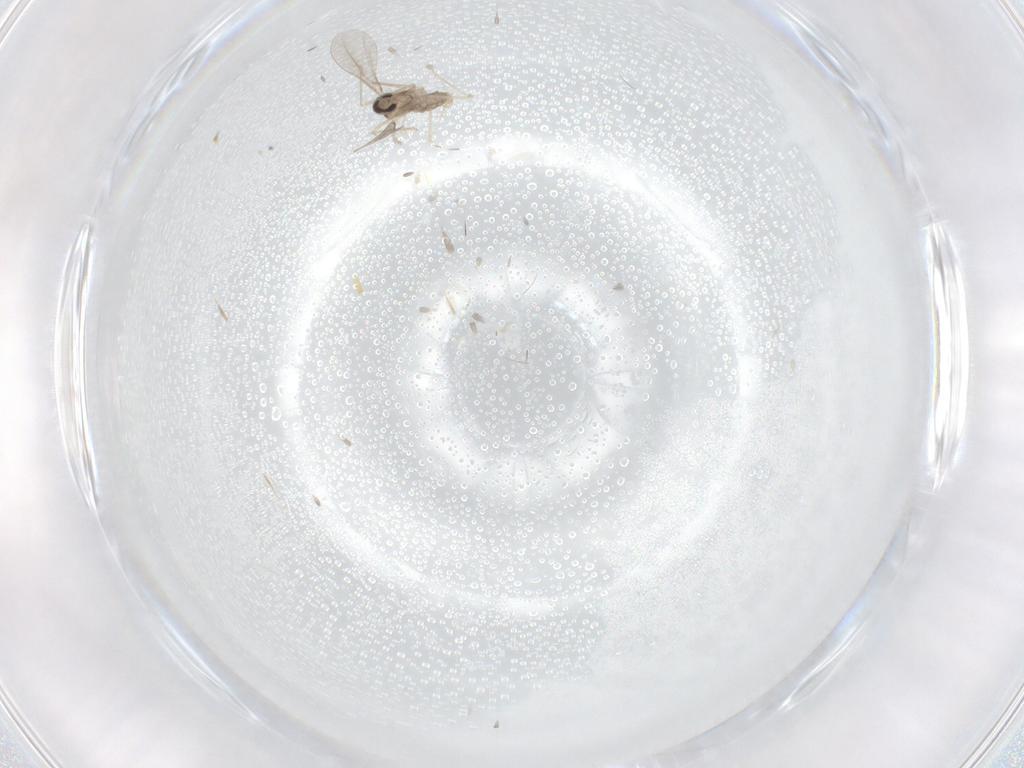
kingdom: Animalia
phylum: Arthropoda
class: Insecta
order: Diptera
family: Cecidomyiidae
